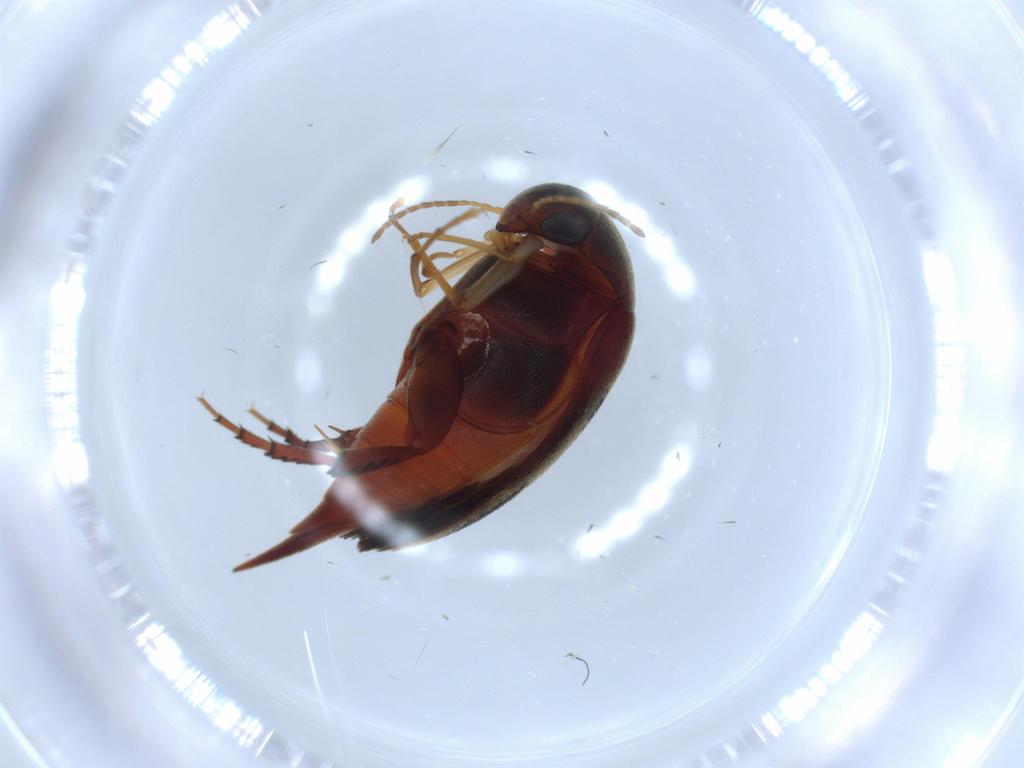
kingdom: Animalia
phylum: Arthropoda
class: Insecta
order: Coleoptera
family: Mordellidae
